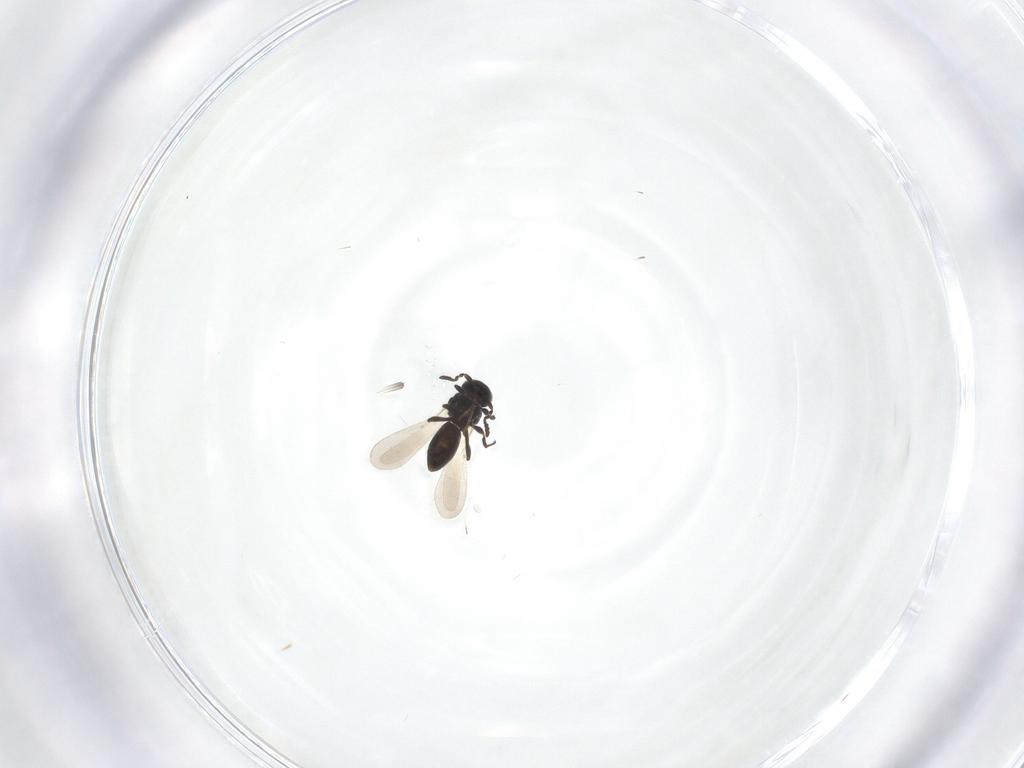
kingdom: Animalia
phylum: Arthropoda
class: Insecta
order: Hymenoptera
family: Platygastridae
